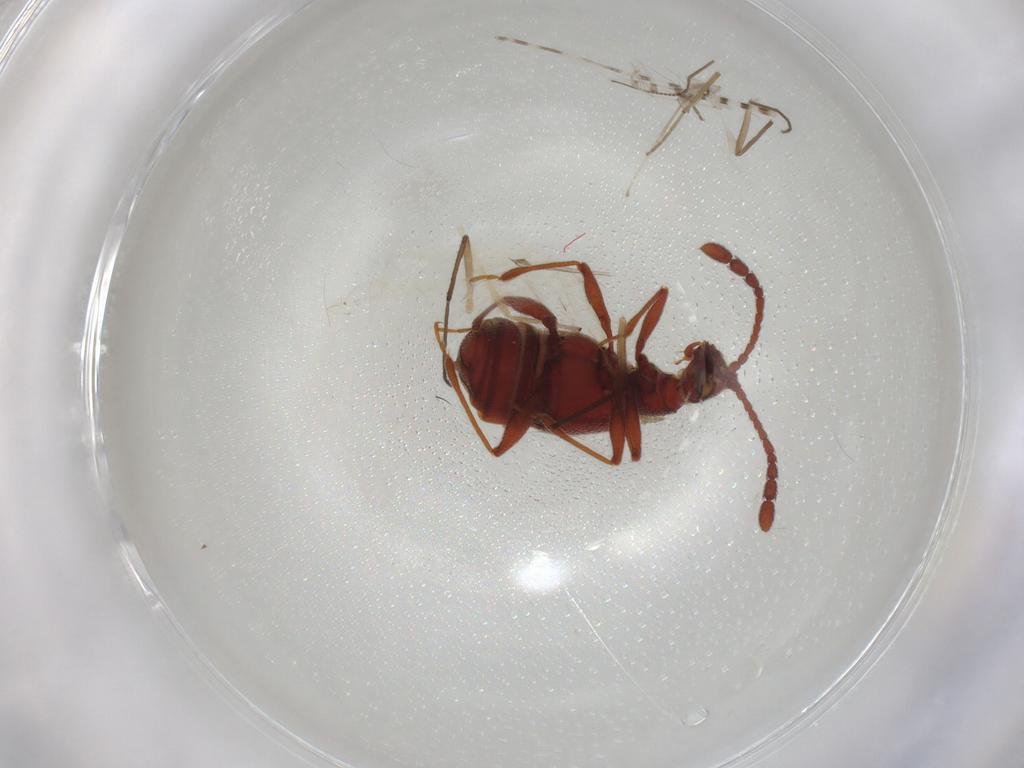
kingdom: Animalia
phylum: Arthropoda
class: Insecta
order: Coleoptera
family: Staphylinidae
